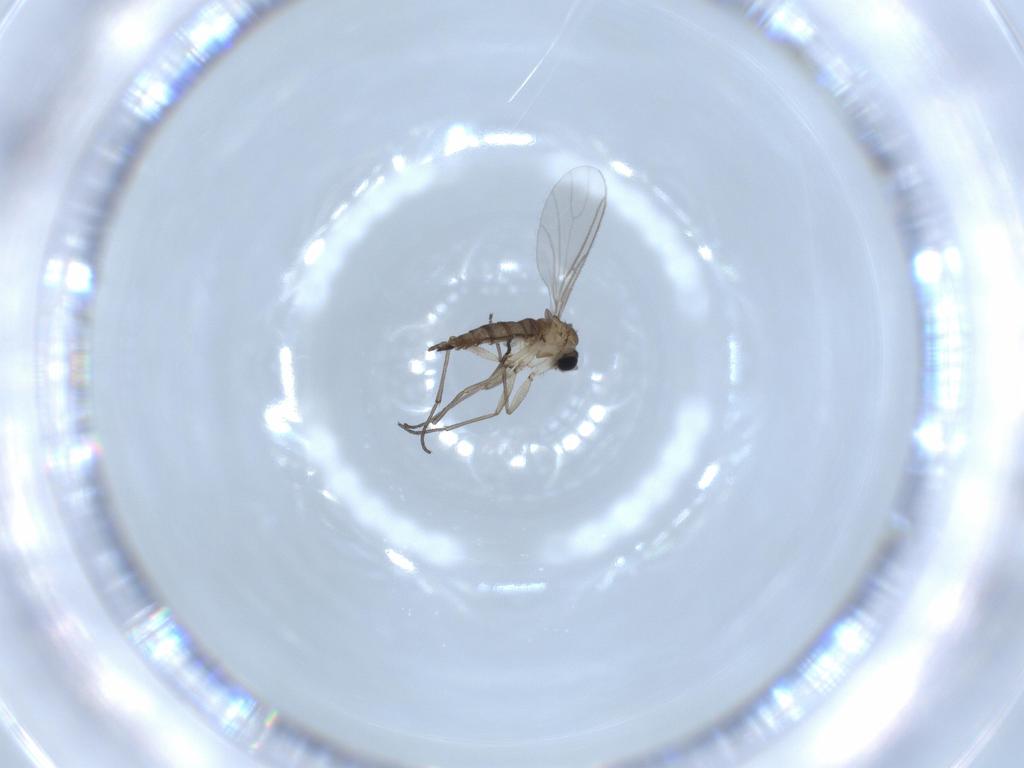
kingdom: Animalia
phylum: Arthropoda
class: Insecta
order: Diptera
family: Sciaridae
